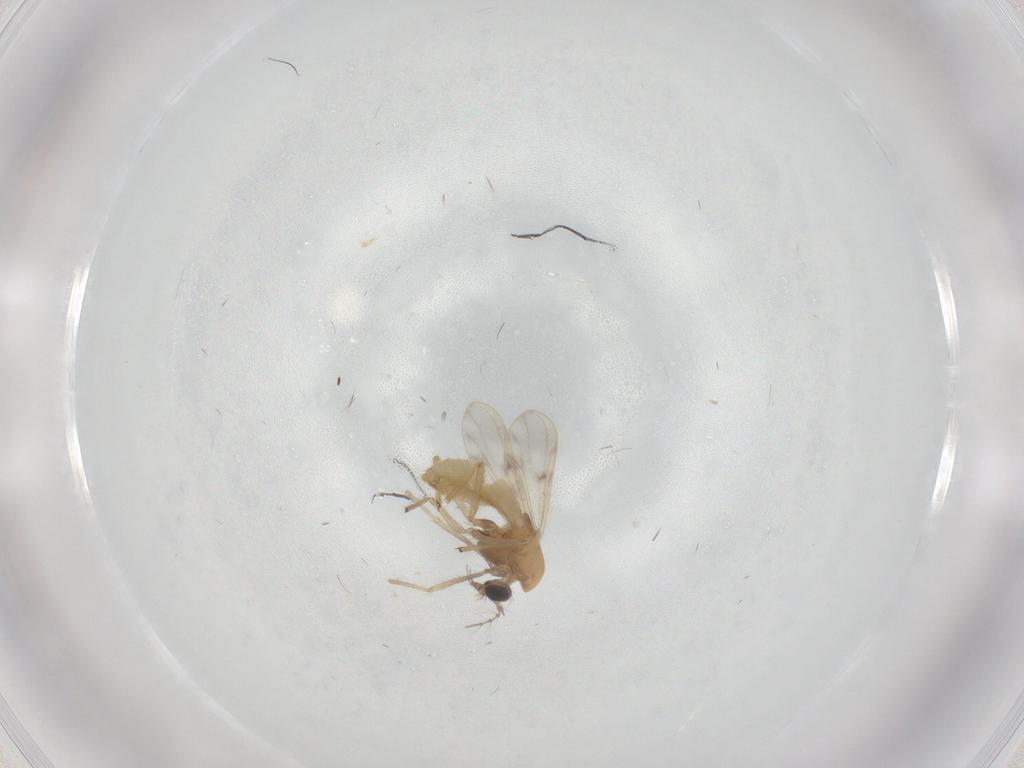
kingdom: Animalia
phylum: Arthropoda
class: Insecta
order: Diptera
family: Chironomidae
